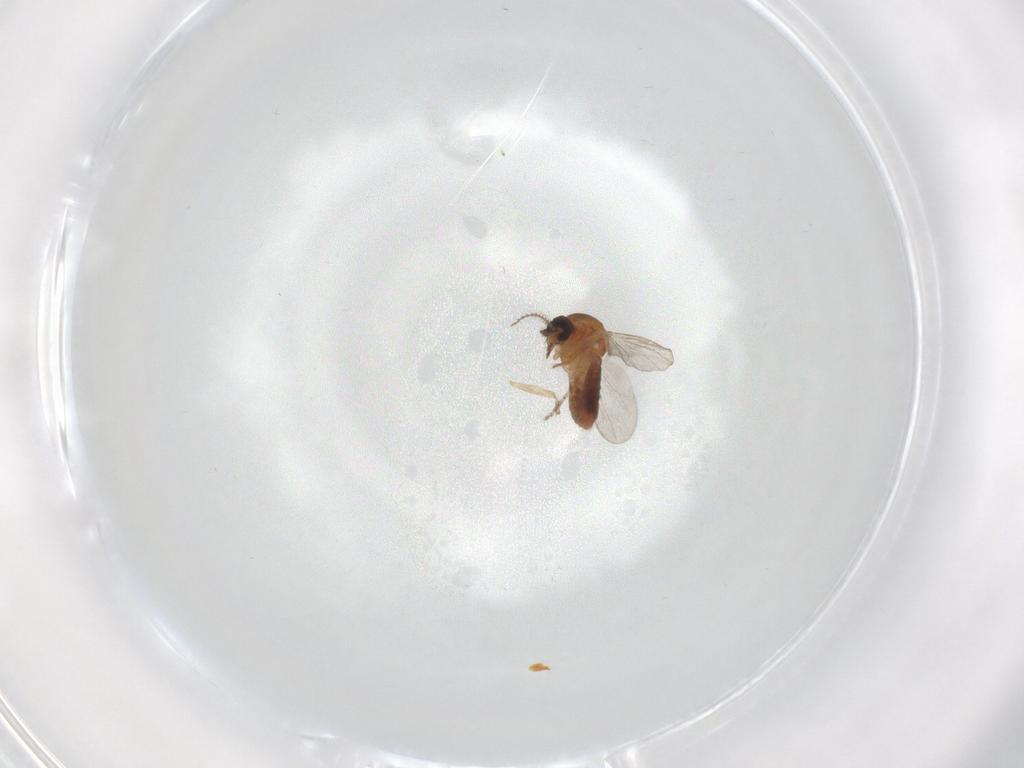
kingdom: Animalia
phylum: Arthropoda
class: Insecta
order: Diptera
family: Ceratopogonidae
